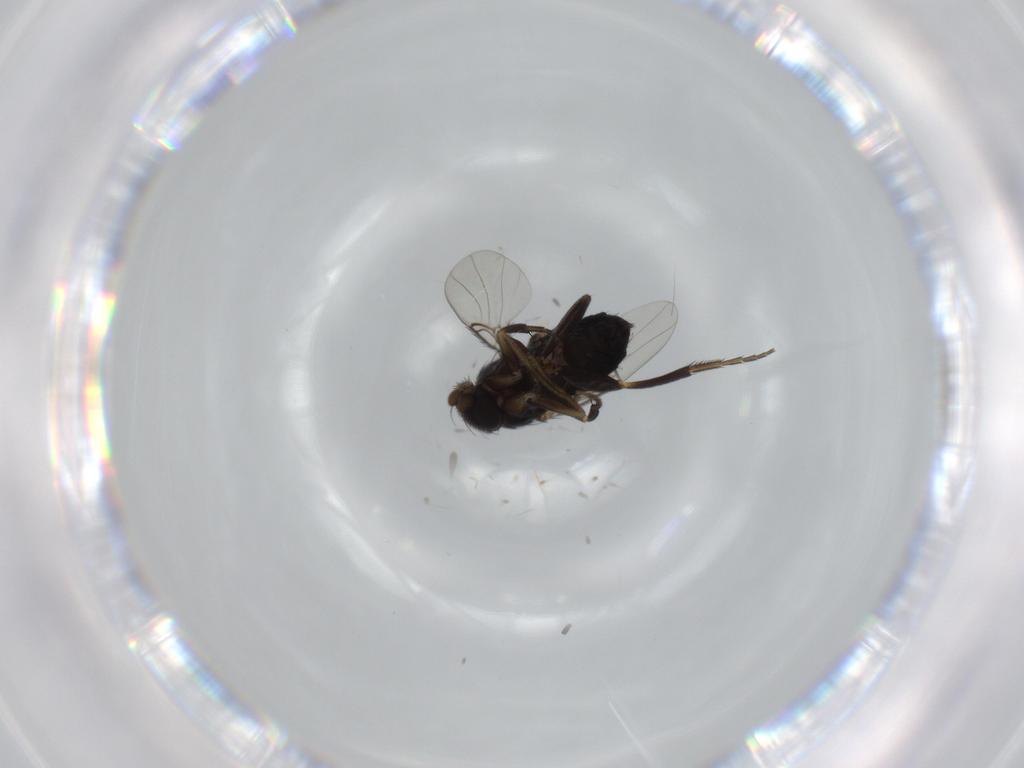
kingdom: Animalia
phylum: Arthropoda
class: Insecta
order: Diptera
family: Phoridae
